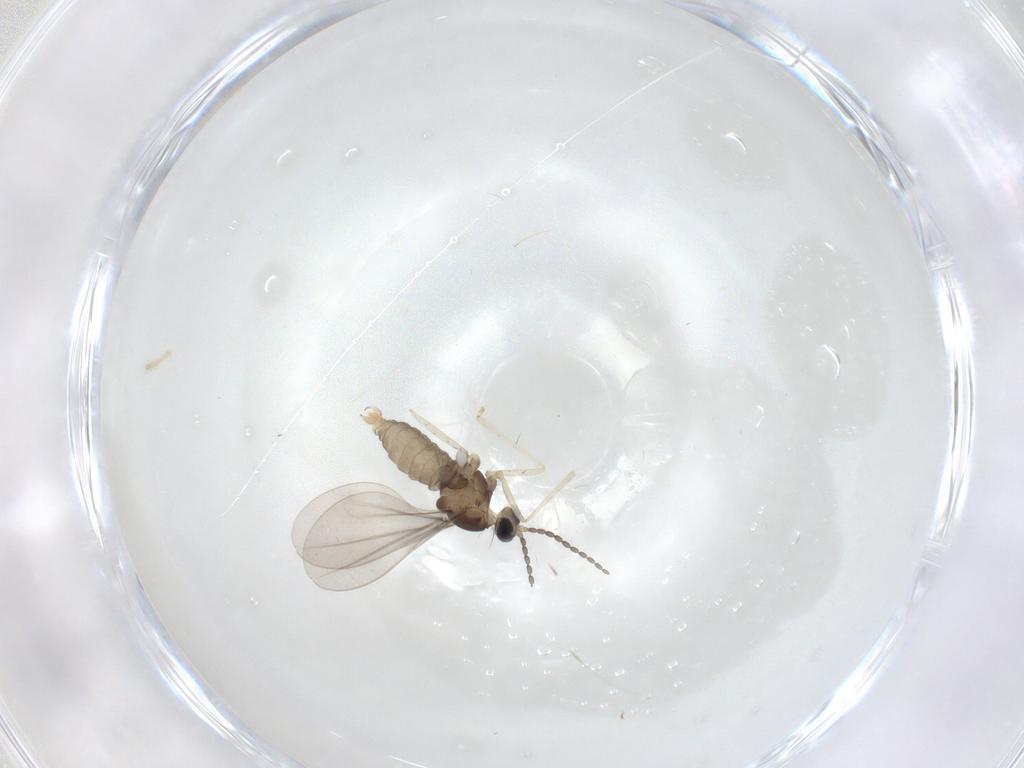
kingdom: Animalia
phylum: Arthropoda
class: Insecta
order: Diptera
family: Cecidomyiidae
